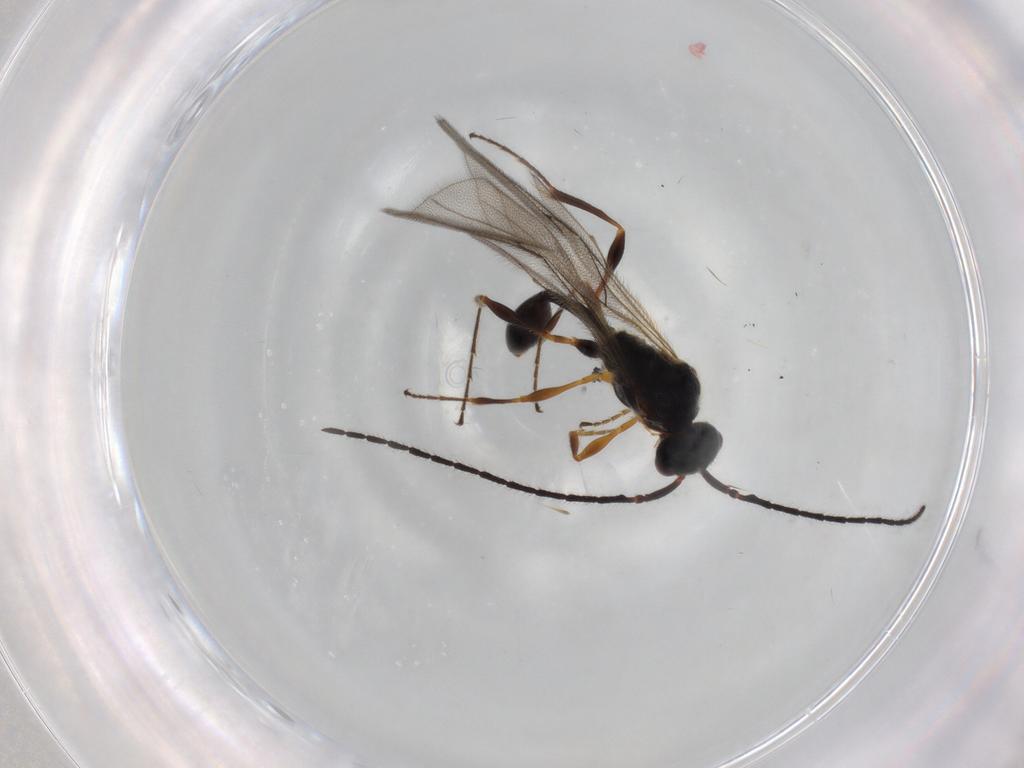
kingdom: Animalia
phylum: Arthropoda
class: Insecta
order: Hymenoptera
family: Diapriidae
